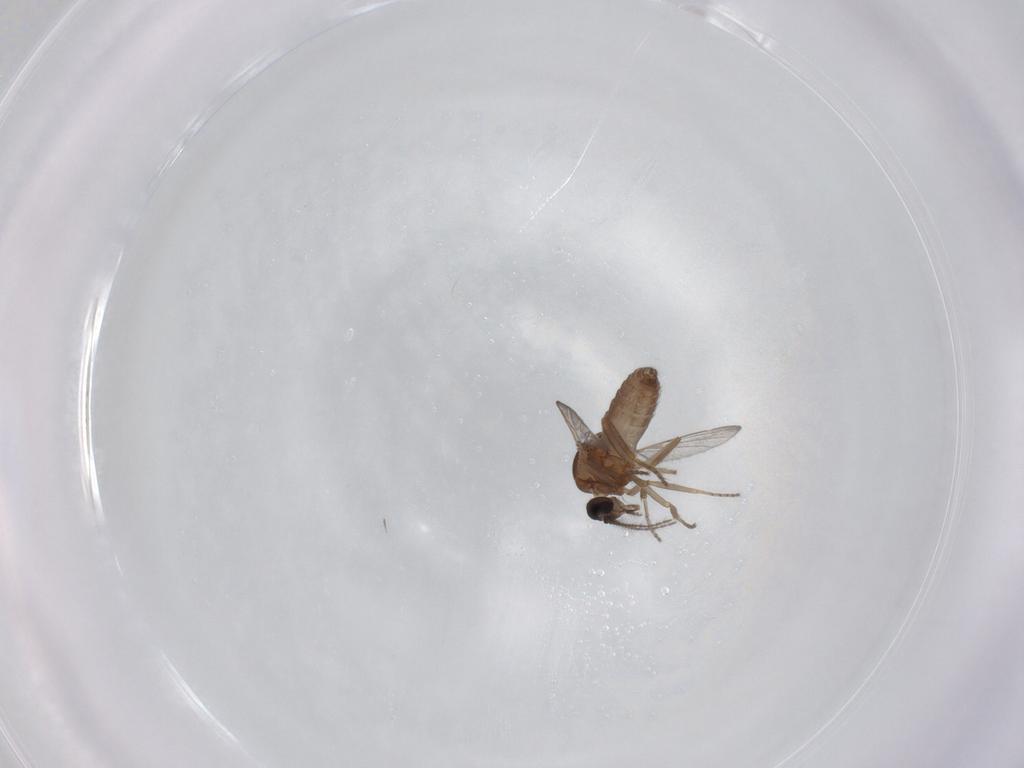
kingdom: Animalia
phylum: Arthropoda
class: Insecta
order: Diptera
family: Ceratopogonidae
